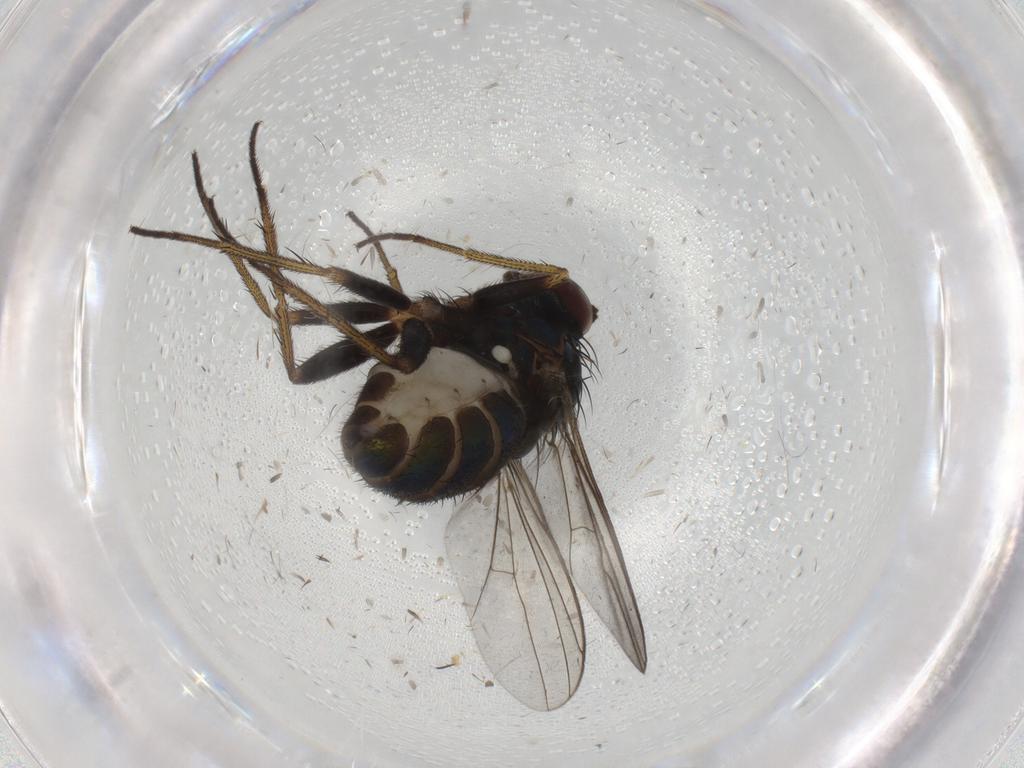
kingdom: Animalia
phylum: Arthropoda
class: Insecta
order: Diptera
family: Dolichopodidae
